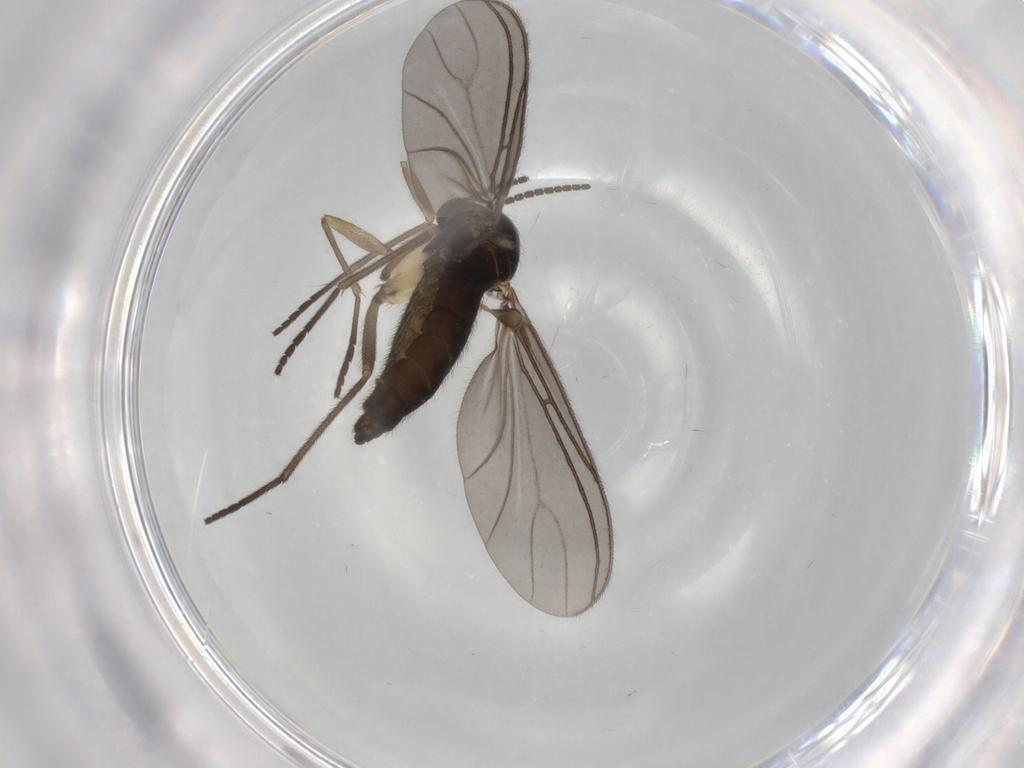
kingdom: Animalia
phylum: Arthropoda
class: Insecta
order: Diptera
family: Sciaridae
